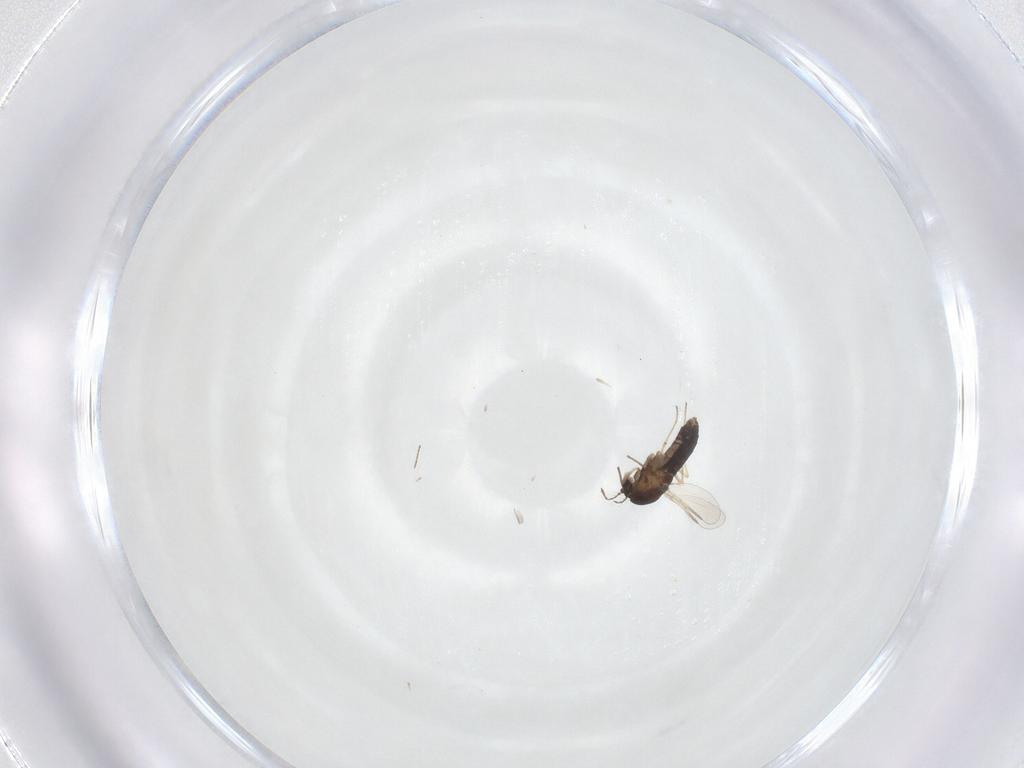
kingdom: Animalia
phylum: Arthropoda
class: Insecta
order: Diptera
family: Chironomidae
